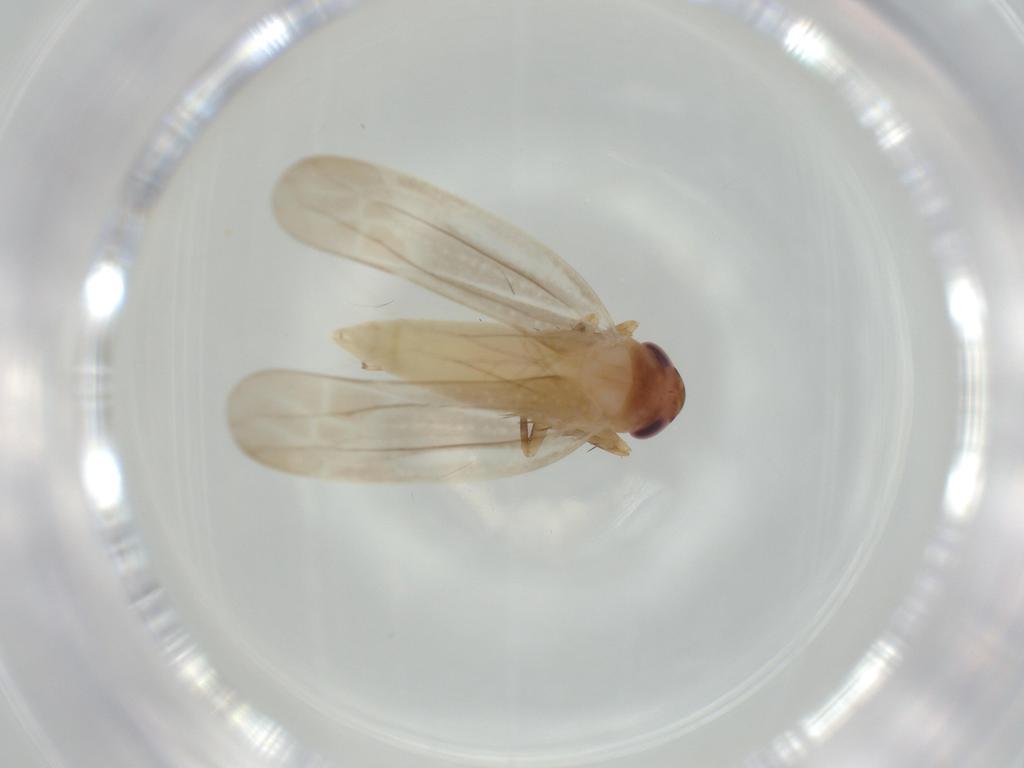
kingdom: Animalia
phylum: Arthropoda
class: Insecta
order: Hemiptera
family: Cicadellidae
